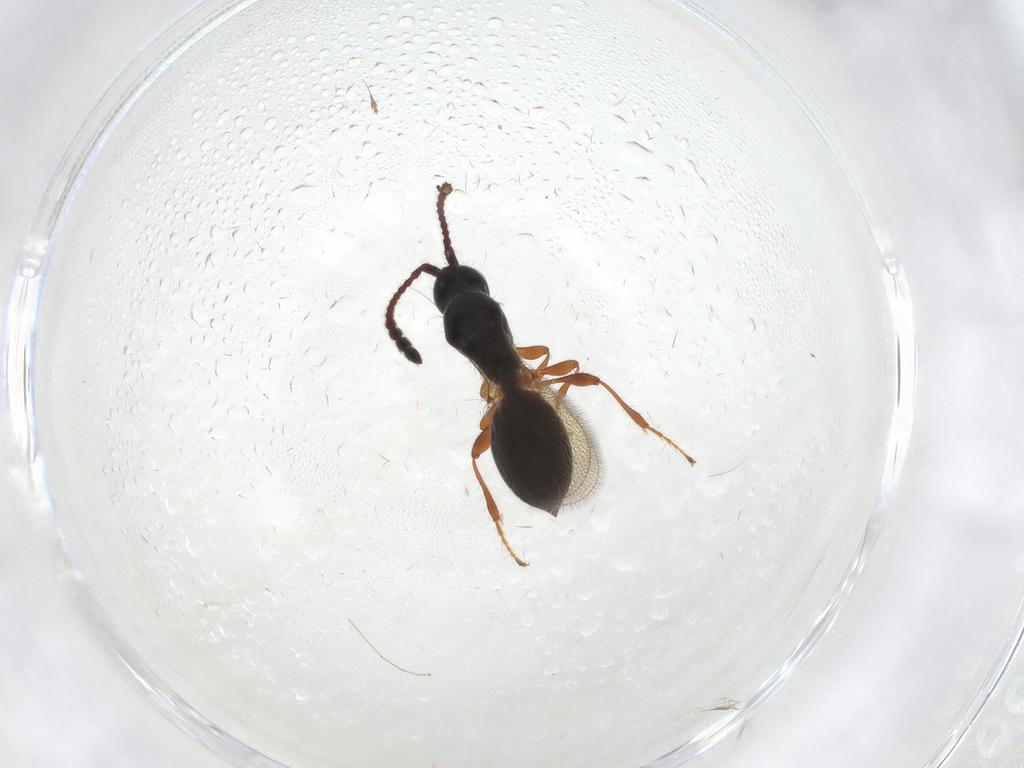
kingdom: Animalia
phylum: Arthropoda
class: Insecta
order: Hymenoptera
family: Diapriidae
